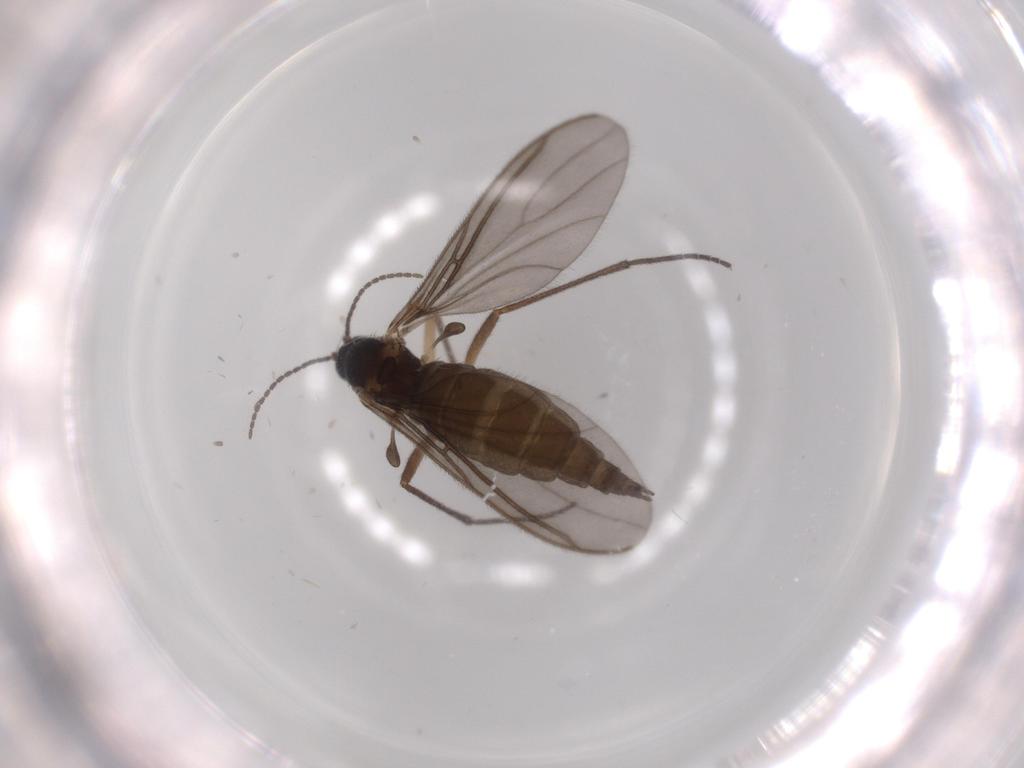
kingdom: Animalia
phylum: Arthropoda
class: Insecta
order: Diptera
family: Sciaridae
